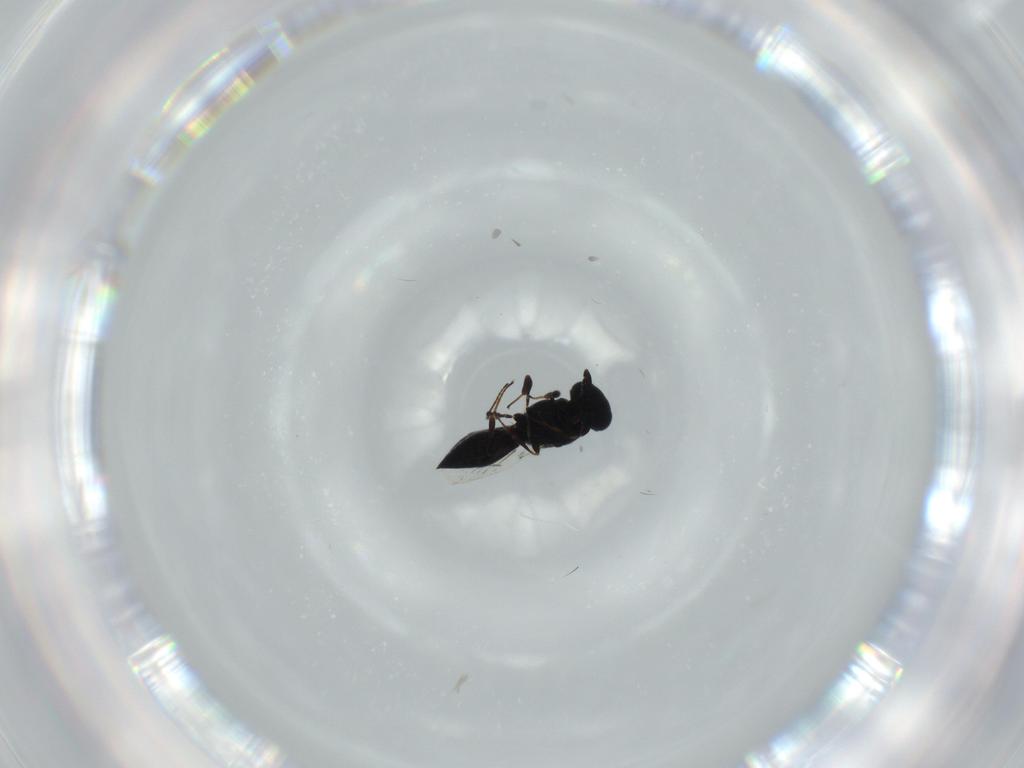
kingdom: Animalia
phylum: Arthropoda
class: Insecta
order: Hymenoptera
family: Platygastridae
